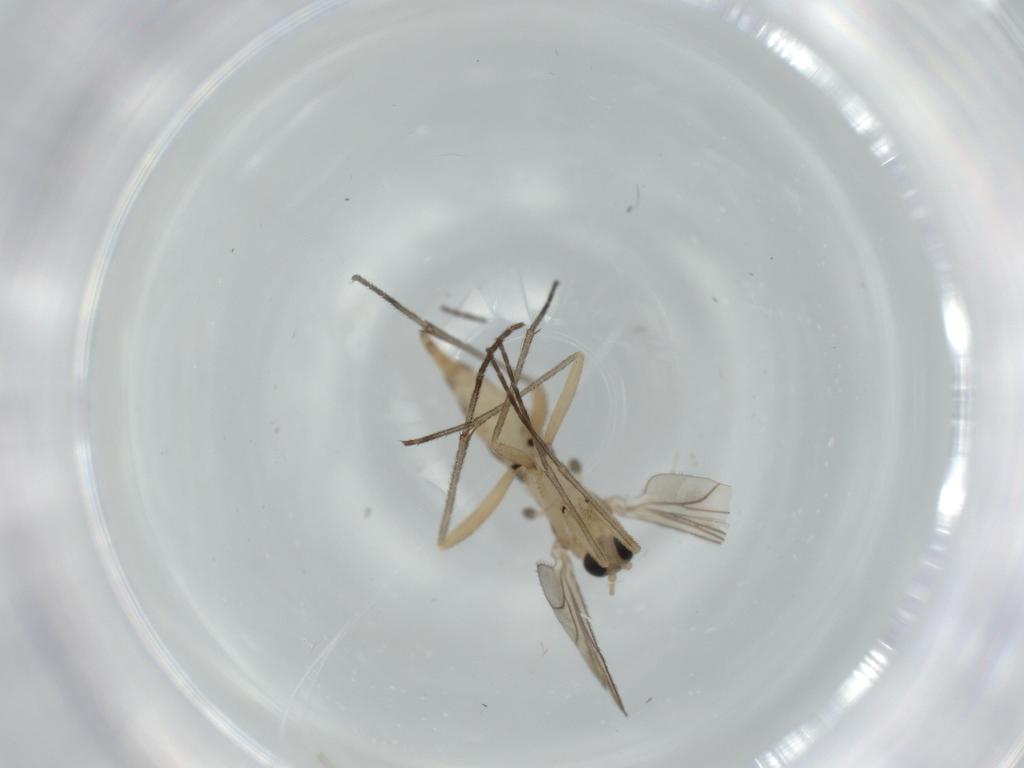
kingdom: Animalia
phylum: Arthropoda
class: Insecta
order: Diptera
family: Sciaridae
